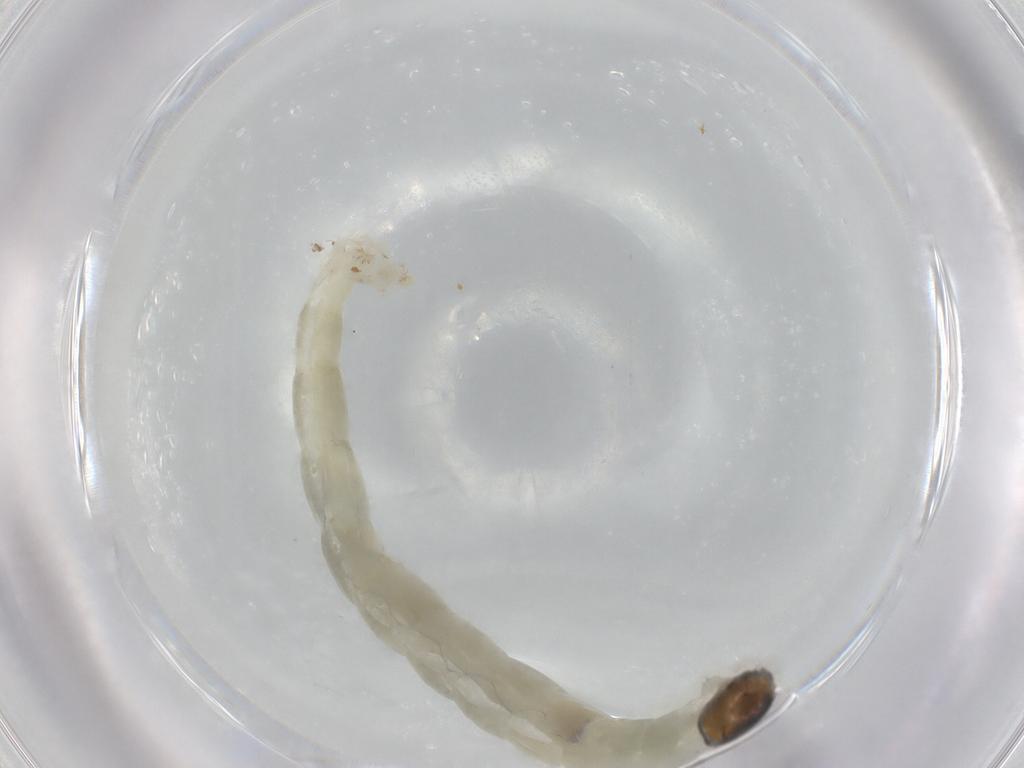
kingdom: Animalia
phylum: Arthropoda
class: Insecta
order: Diptera
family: Chironomidae
